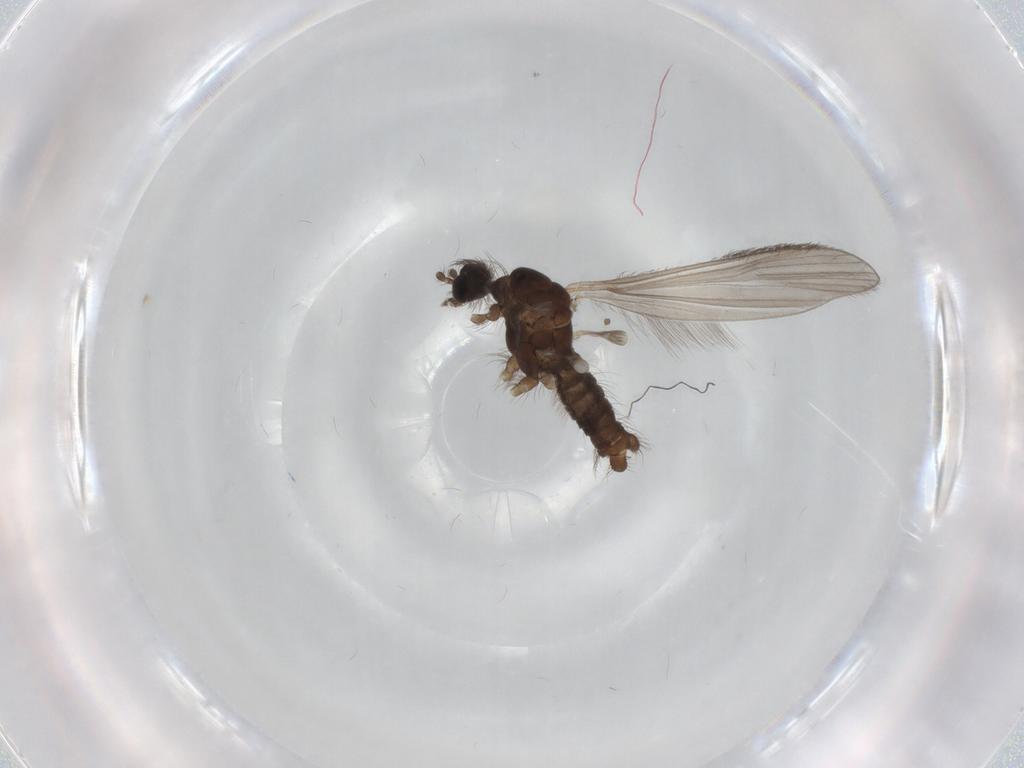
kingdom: Animalia
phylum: Arthropoda
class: Insecta
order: Diptera
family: Limoniidae
